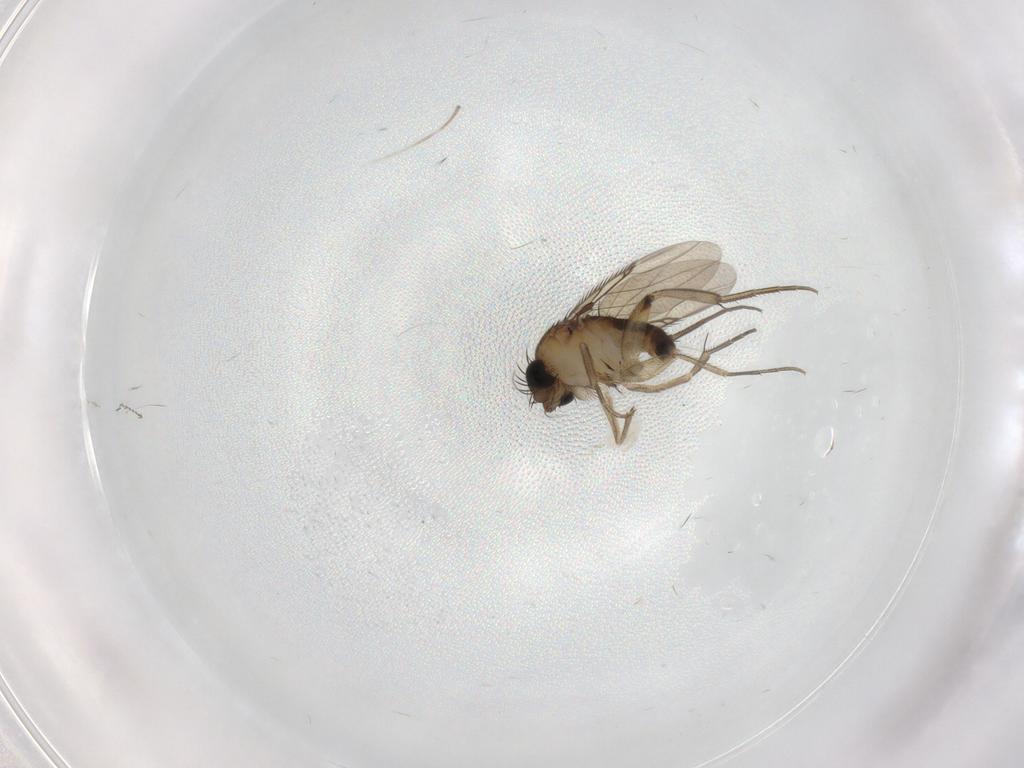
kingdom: Animalia
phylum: Arthropoda
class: Insecta
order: Diptera
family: Phoridae
